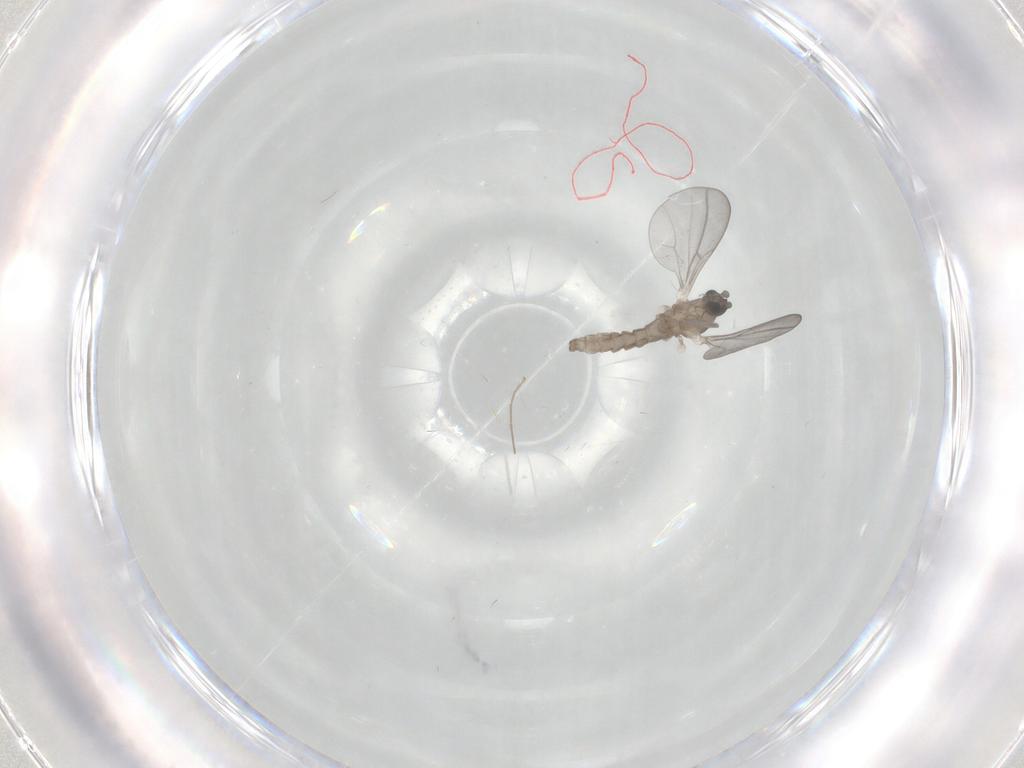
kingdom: Animalia
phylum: Arthropoda
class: Insecta
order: Diptera
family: Cecidomyiidae
